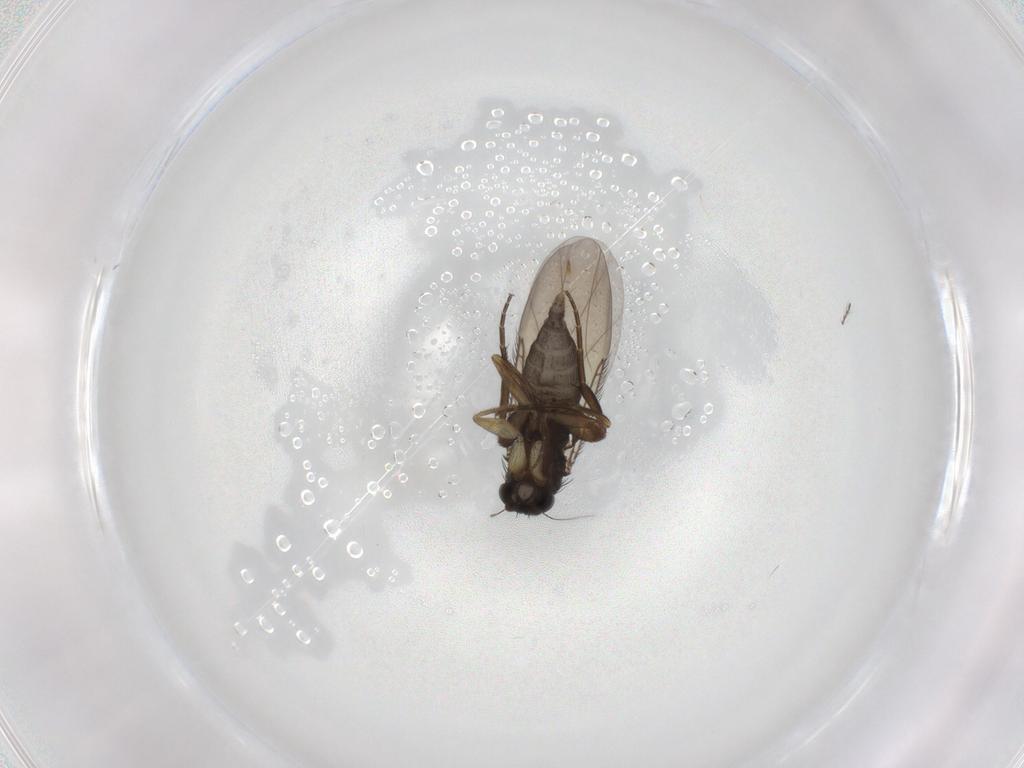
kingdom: Animalia
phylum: Arthropoda
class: Insecta
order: Diptera
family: Phoridae
